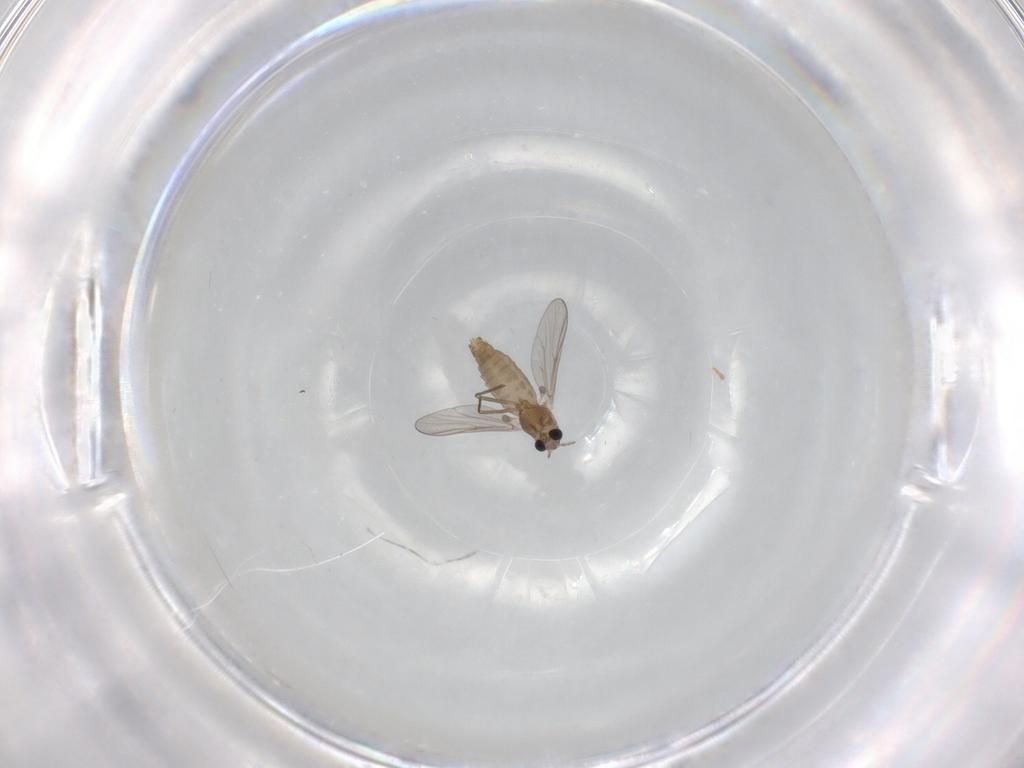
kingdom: Animalia
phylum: Arthropoda
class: Insecta
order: Diptera
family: Chironomidae
